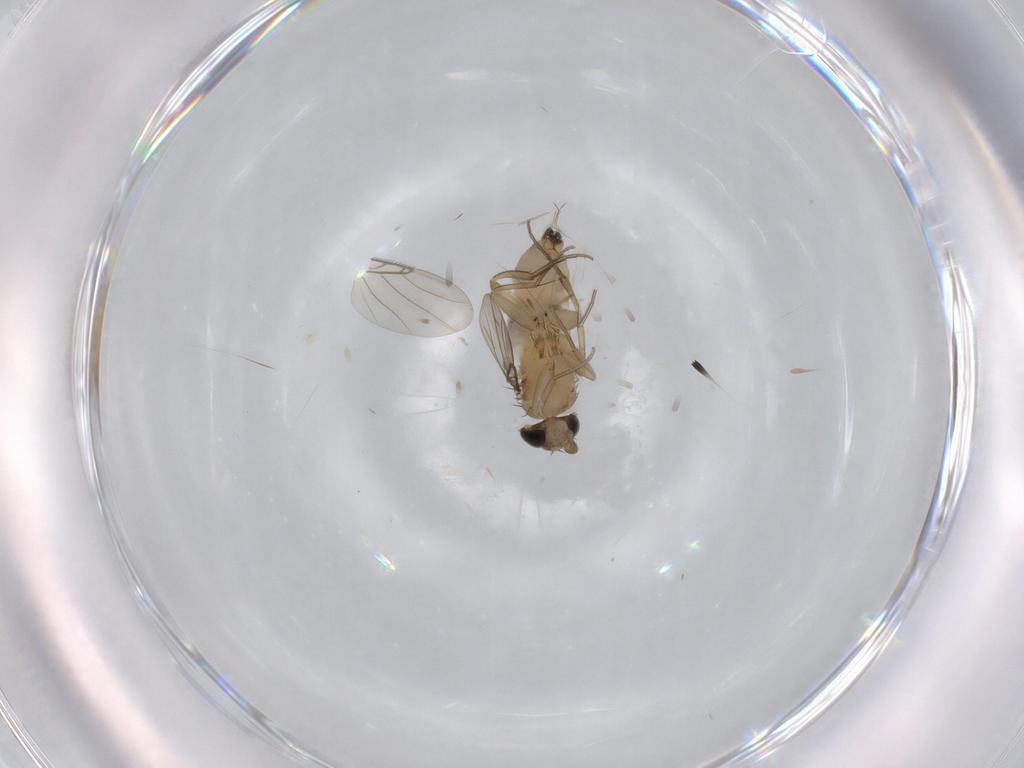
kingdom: Animalia
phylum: Arthropoda
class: Insecta
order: Diptera
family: Phoridae
